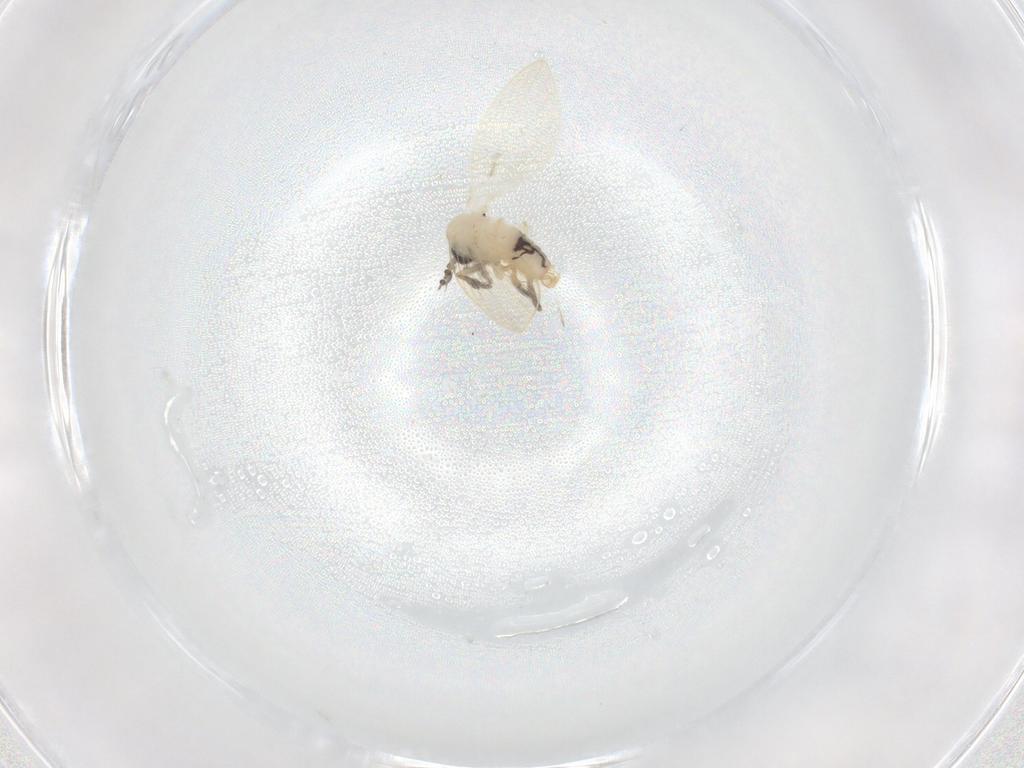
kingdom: Animalia
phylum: Arthropoda
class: Insecta
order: Diptera
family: Psychodidae
